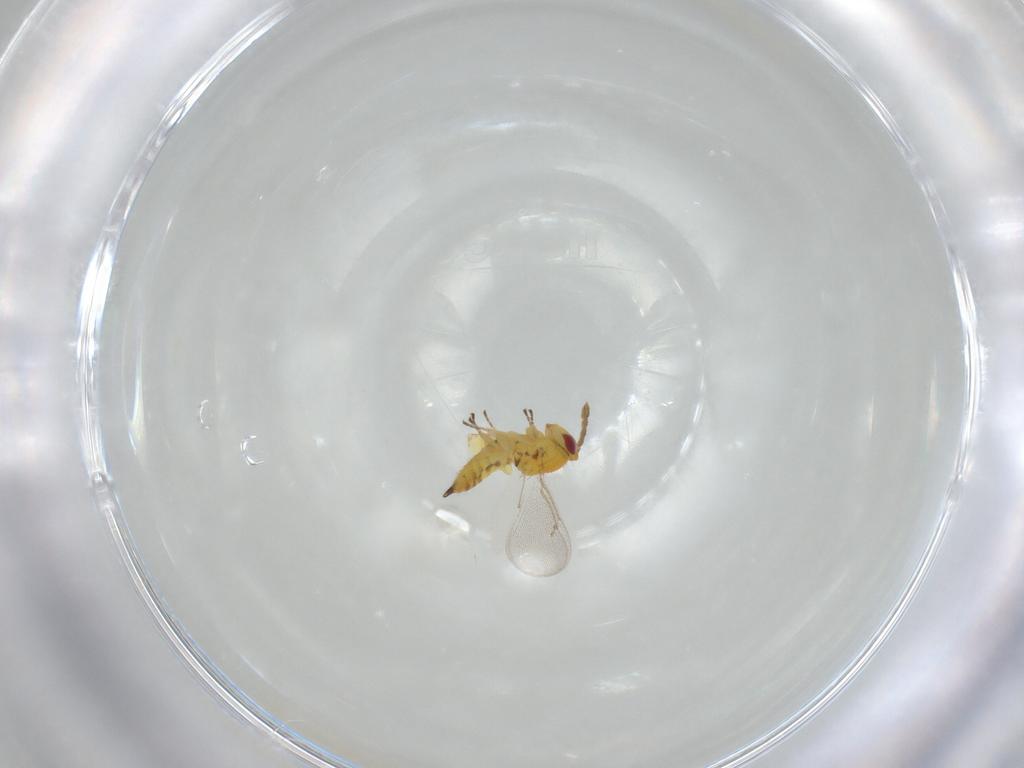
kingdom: Animalia
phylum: Arthropoda
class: Insecta
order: Hymenoptera
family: Eulophidae
